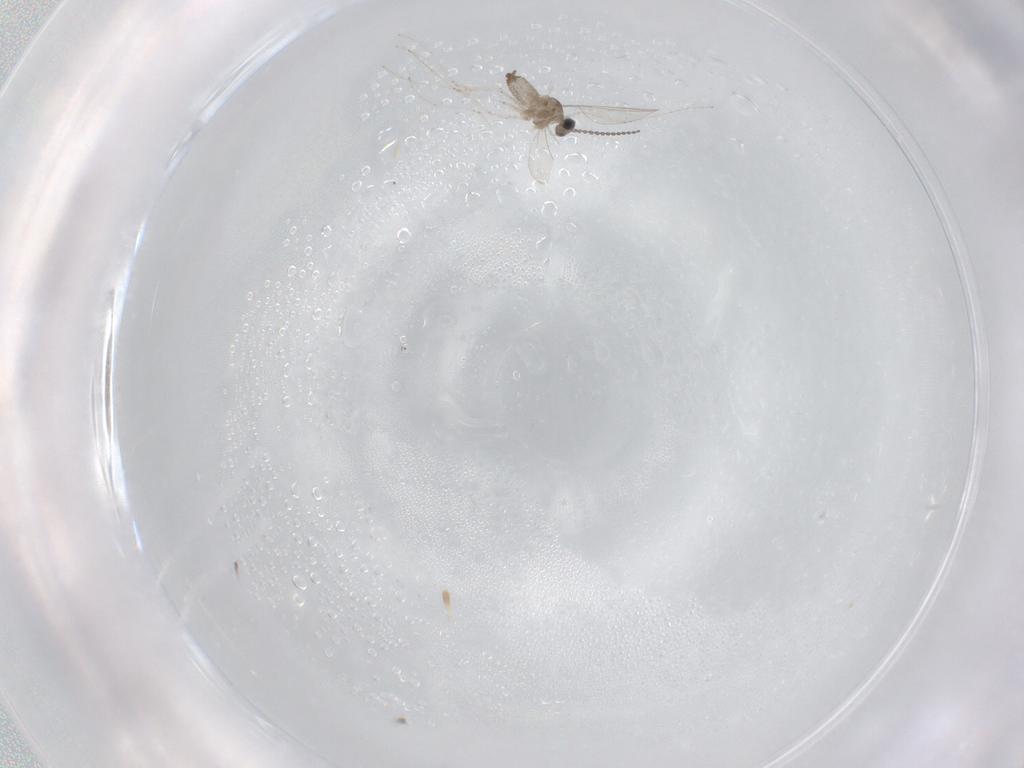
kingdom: Animalia
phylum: Arthropoda
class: Insecta
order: Diptera
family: Cecidomyiidae
